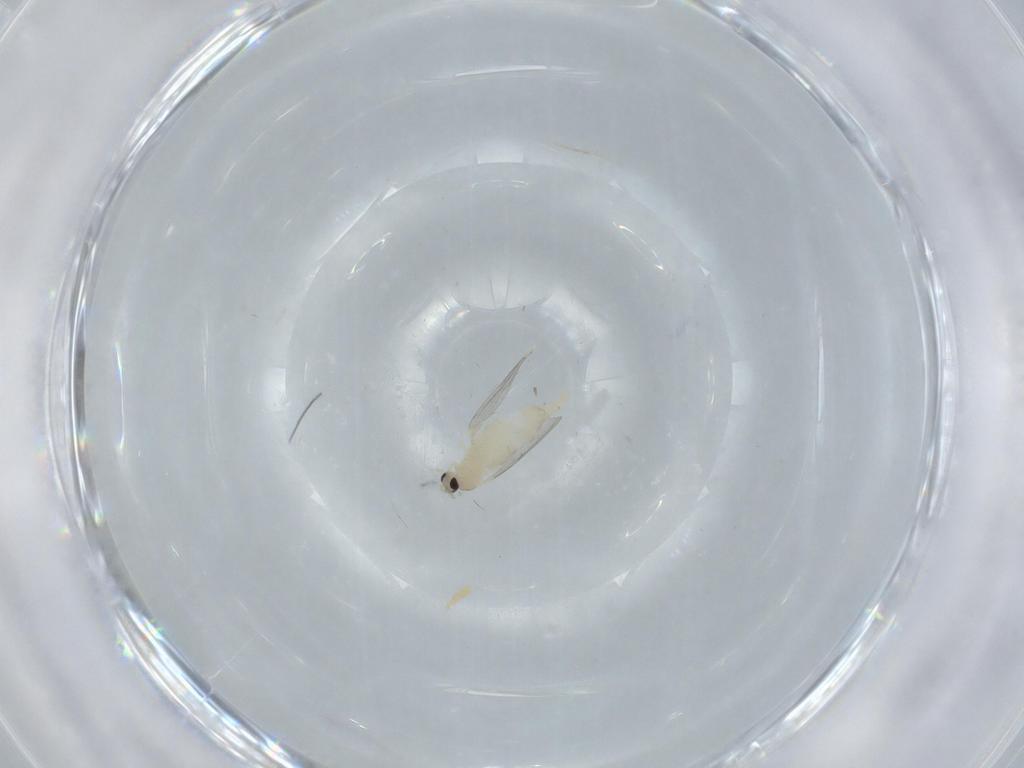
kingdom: Animalia
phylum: Arthropoda
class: Insecta
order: Diptera
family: Cecidomyiidae
